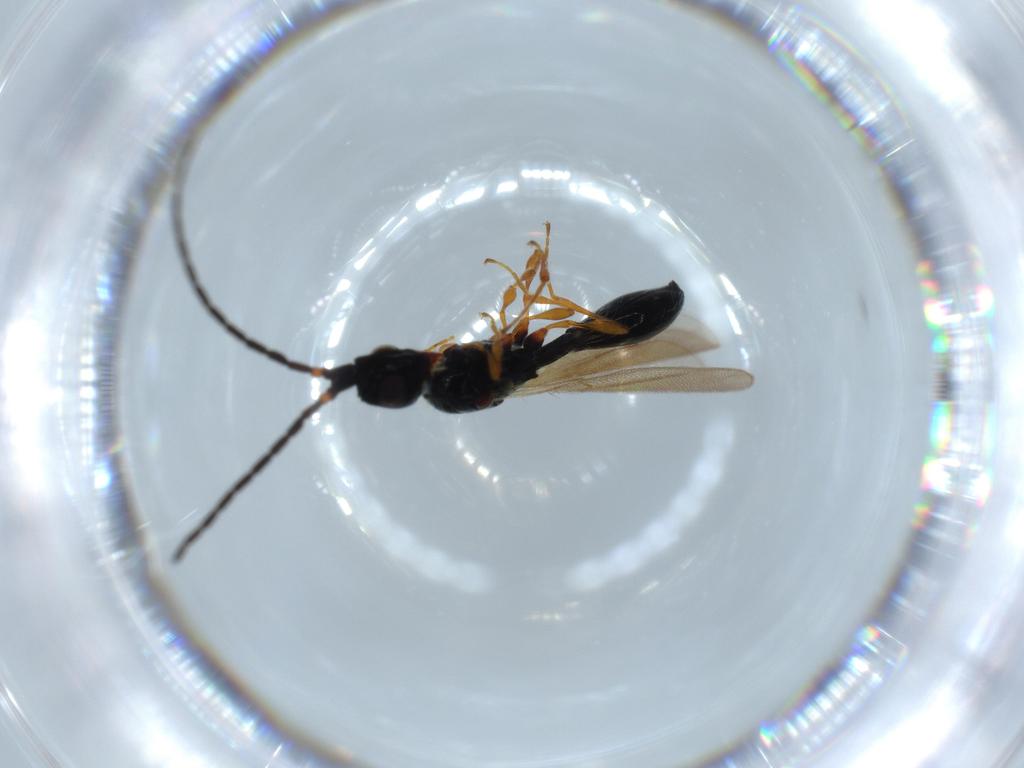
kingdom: Animalia
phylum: Arthropoda
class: Insecta
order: Hymenoptera
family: Diapriidae
